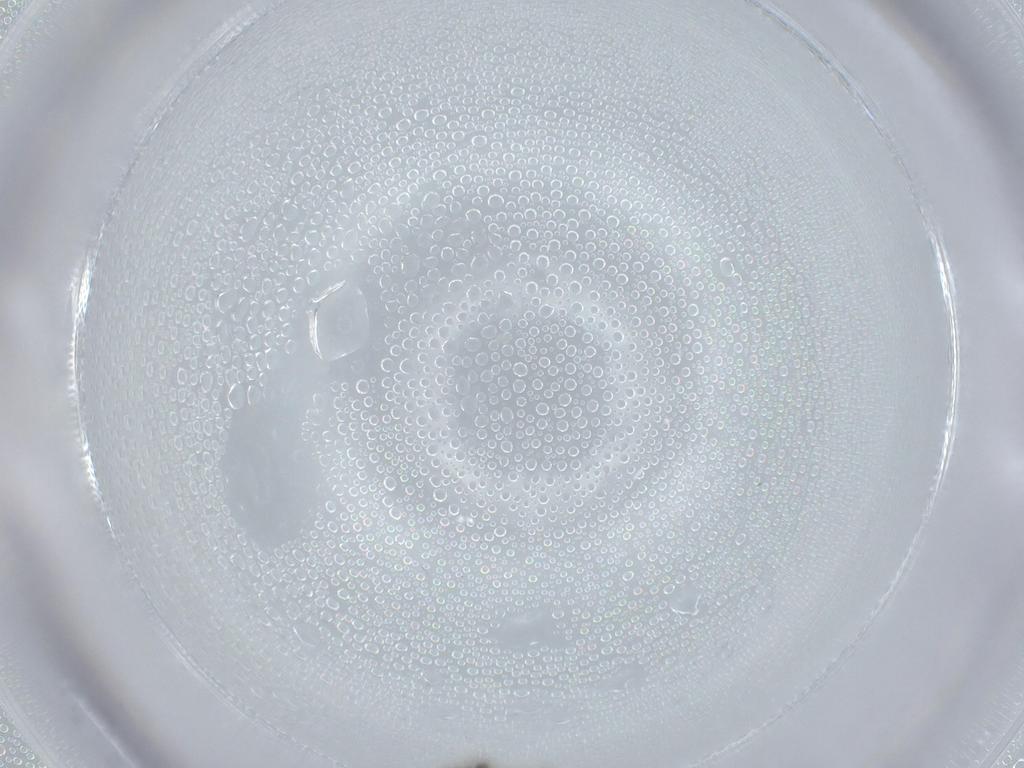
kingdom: Animalia
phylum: Arthropoda
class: Insecta
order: Diptera
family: Cecidomyiidae
